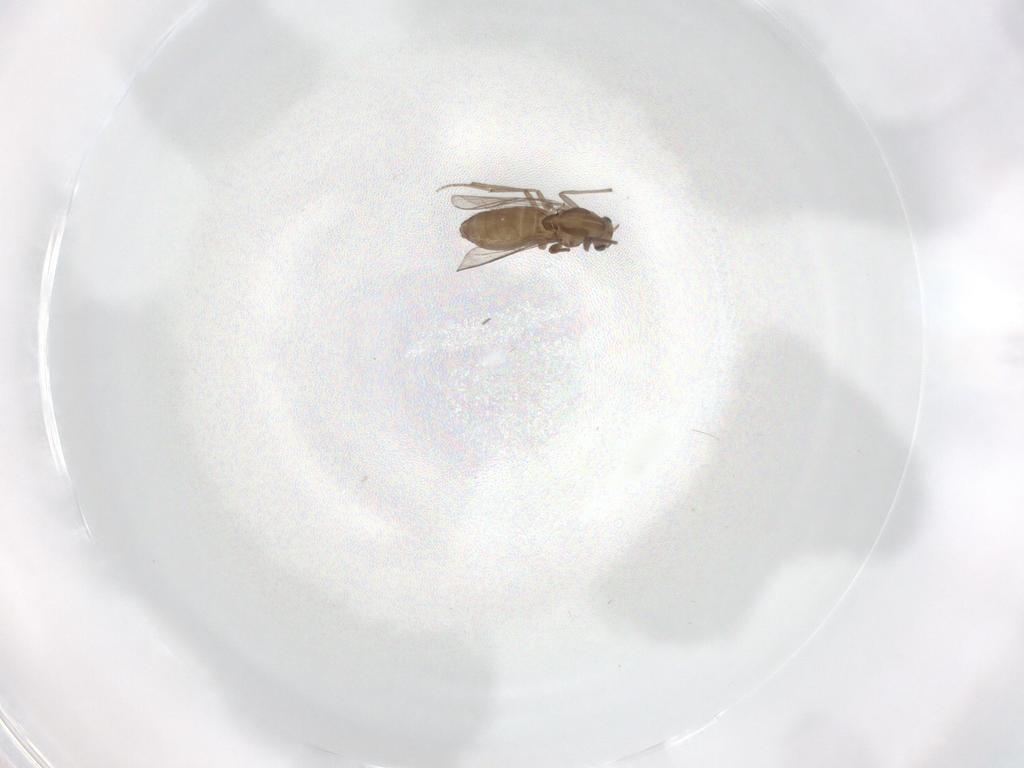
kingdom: Animalia
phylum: Arthropoda
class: Insecta
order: Diptera
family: Chironomidae
